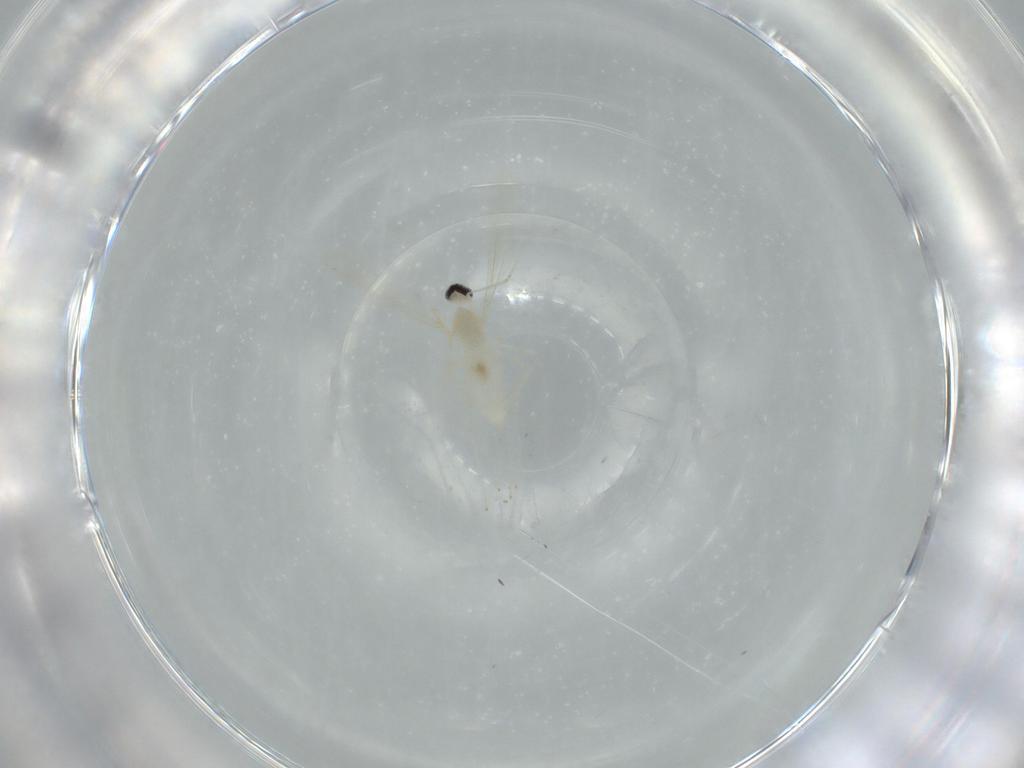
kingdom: Animalia
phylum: Arthropoda
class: Insecta
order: Diptera
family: Cecidomyiidae
